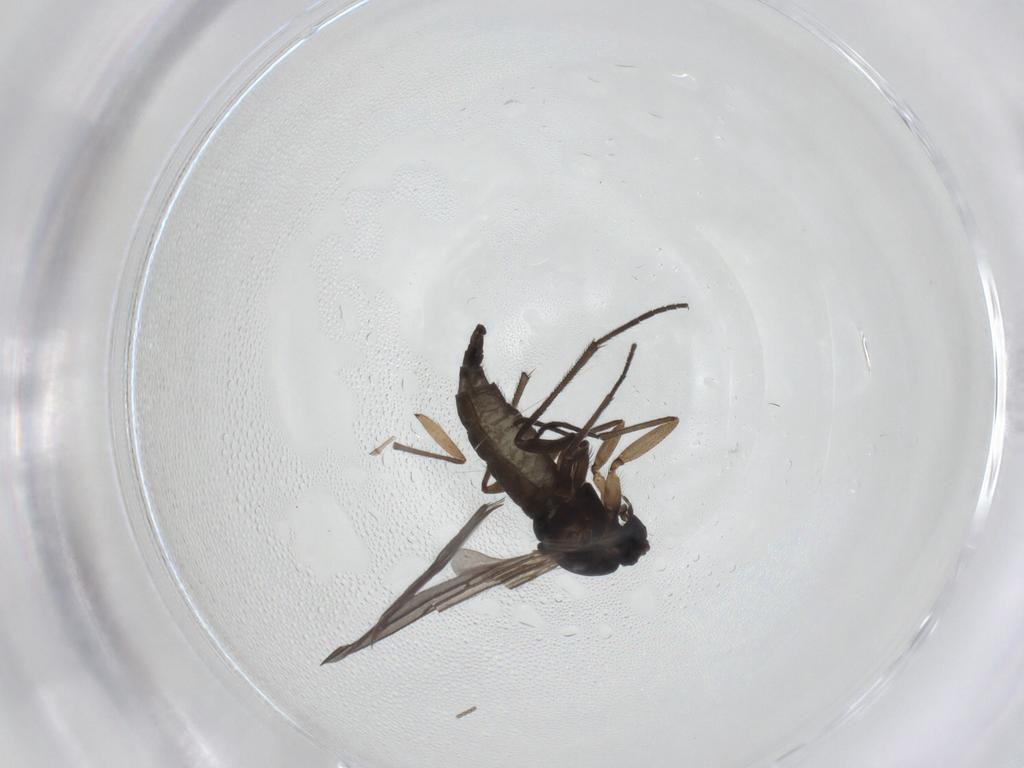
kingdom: Animalia
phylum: Arthropoda
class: Insecta
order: Diptera
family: Sciaridae
